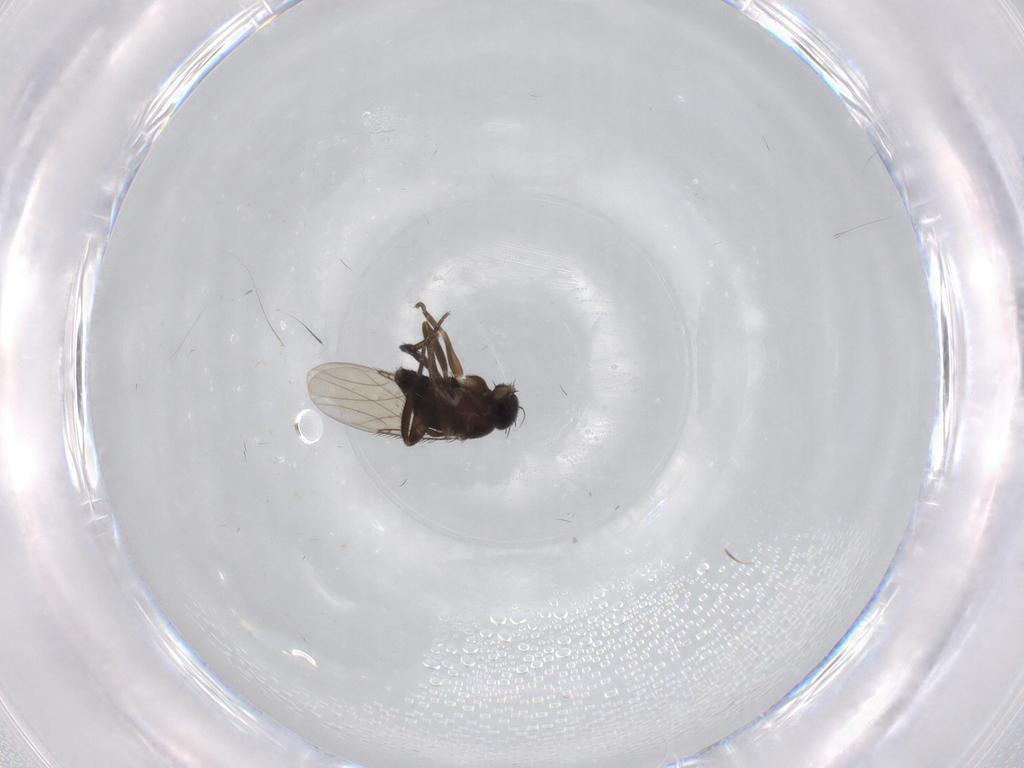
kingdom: Animalia
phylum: Arthropoda
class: Insecta
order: Diptera
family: Phoridae
